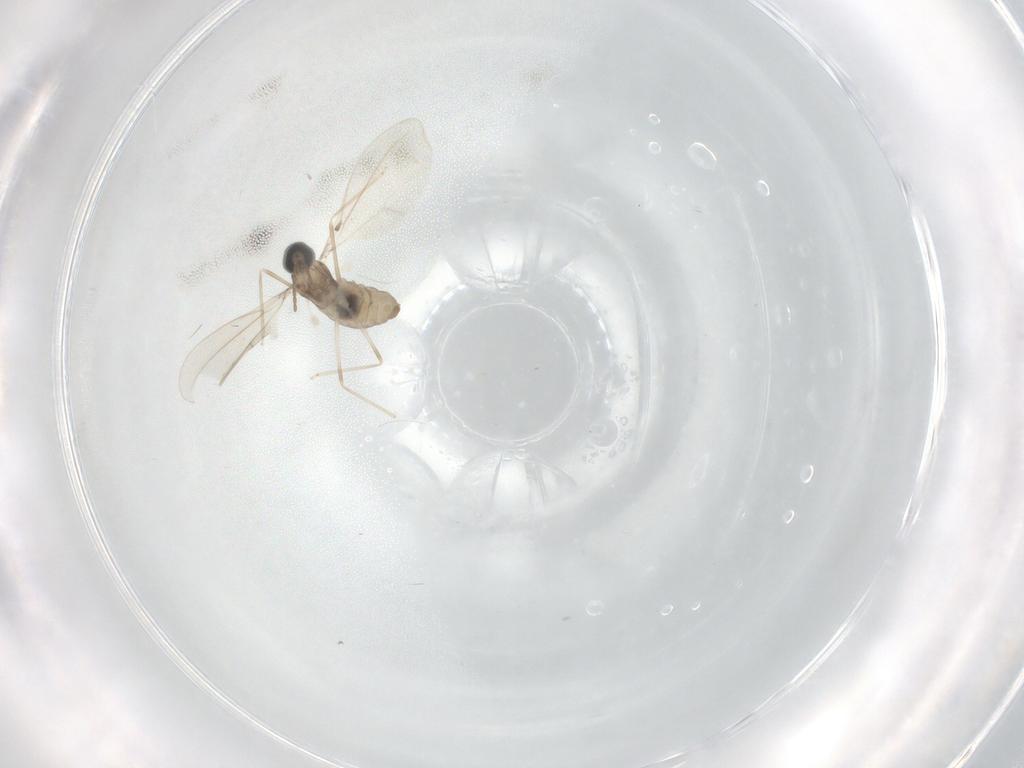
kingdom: Animalia
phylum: Arthropoda
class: Insecta
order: Diptera
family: Cecidomyiidae
